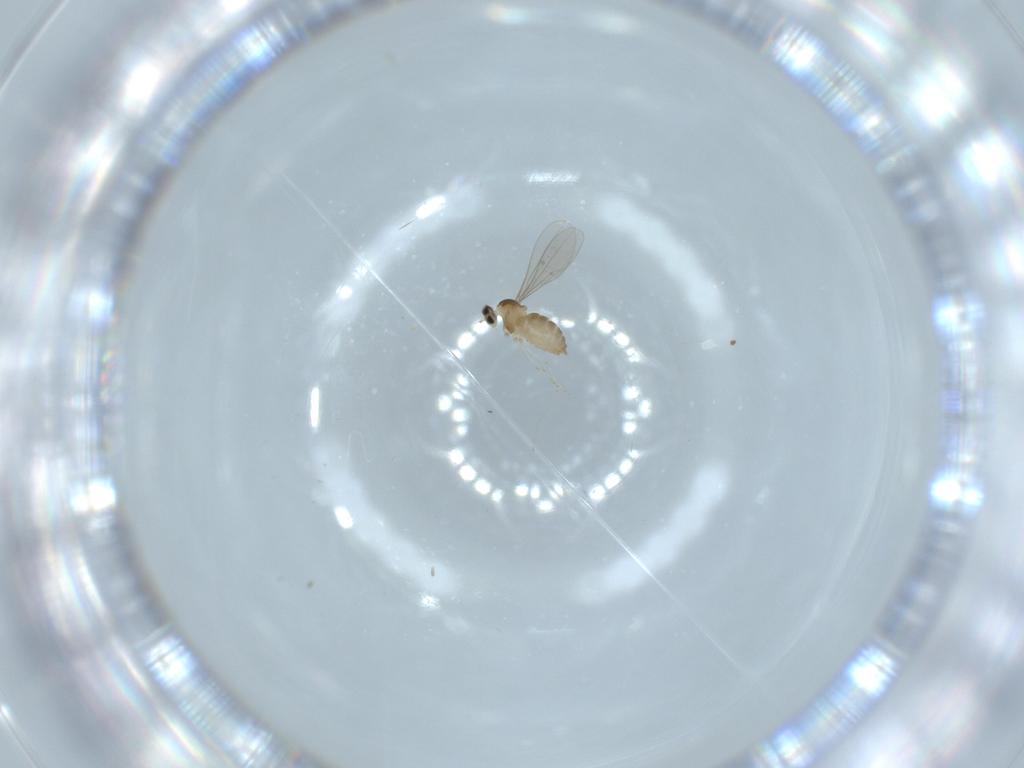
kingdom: Animalia
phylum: Arthropoda
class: Insecta
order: Diptera
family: Cecidomyiidae
